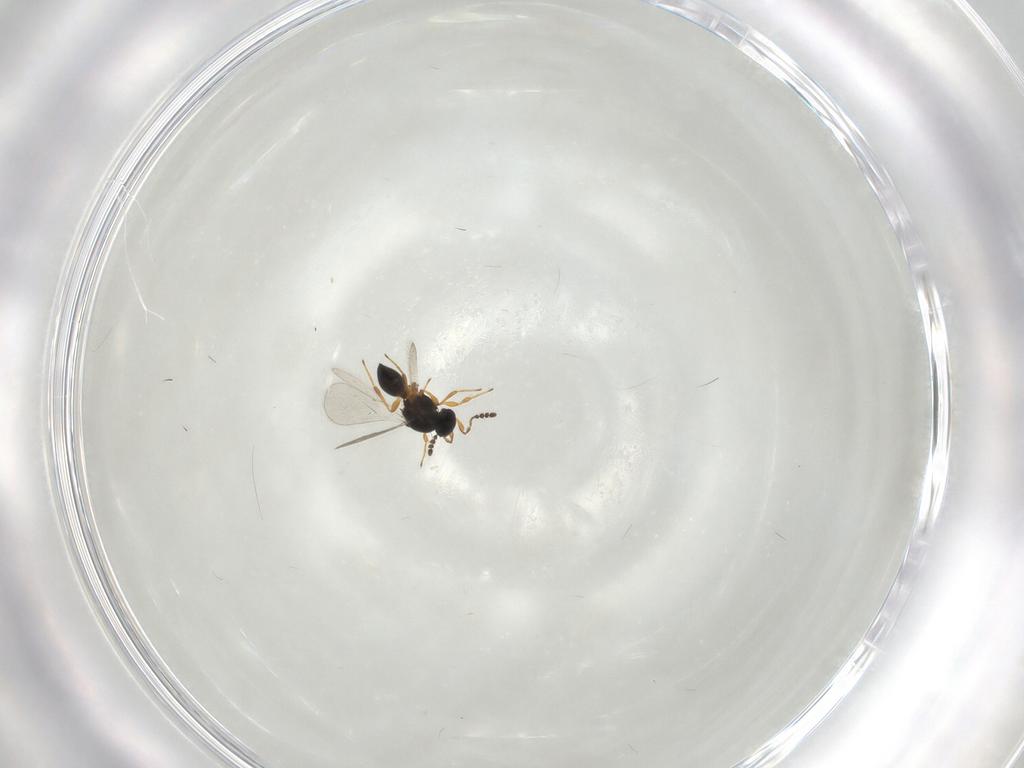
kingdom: Animalia
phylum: Arthropoda
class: Insecta
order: Hymenoptera
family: Platygastridae
